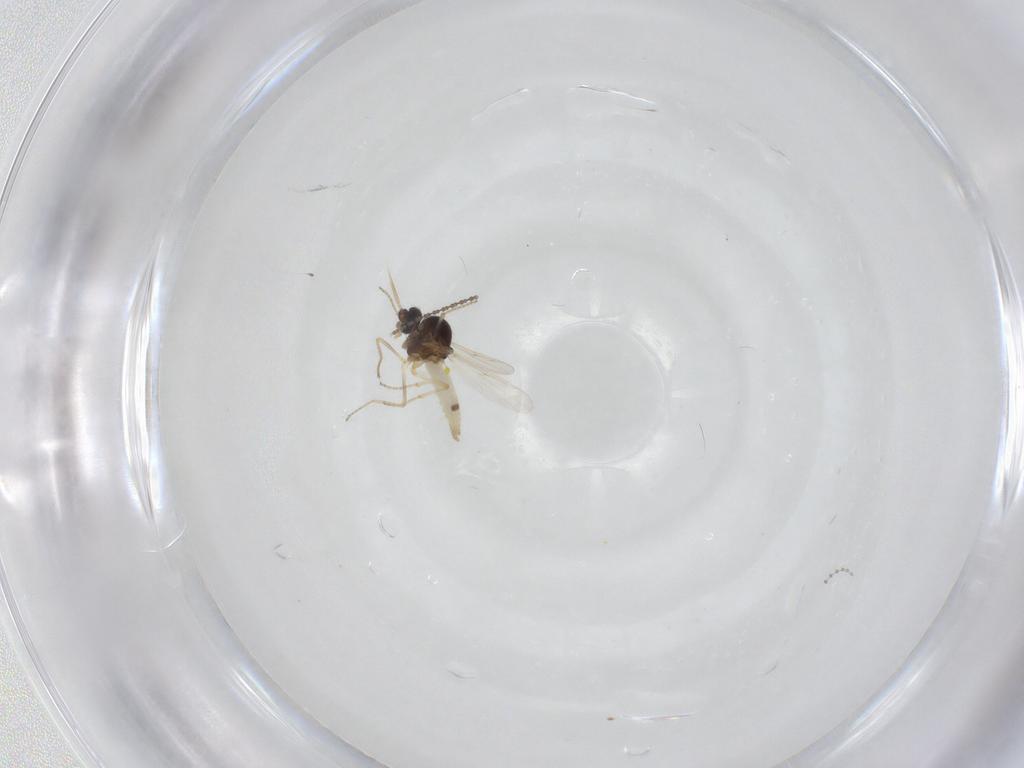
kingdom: Animalia
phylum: Arthropoda
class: Insecta
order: Diptera
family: Ceratopogonidae
